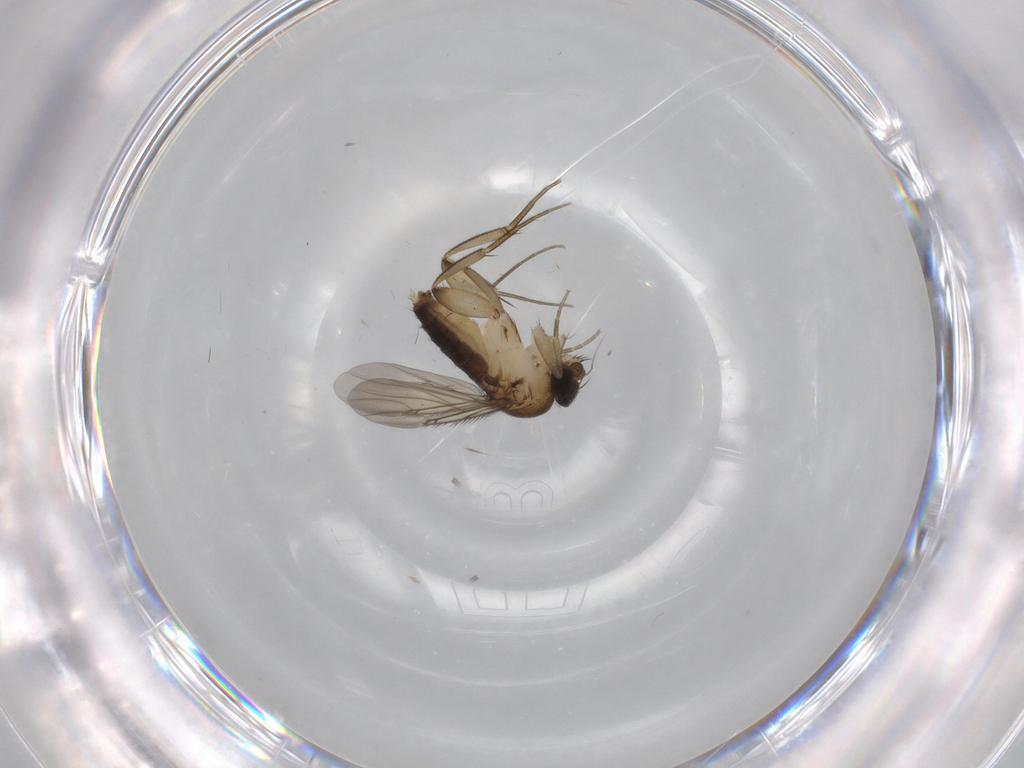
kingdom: Animalia
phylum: Arthropoda
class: Insecta
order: Diptera
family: Phoridae
